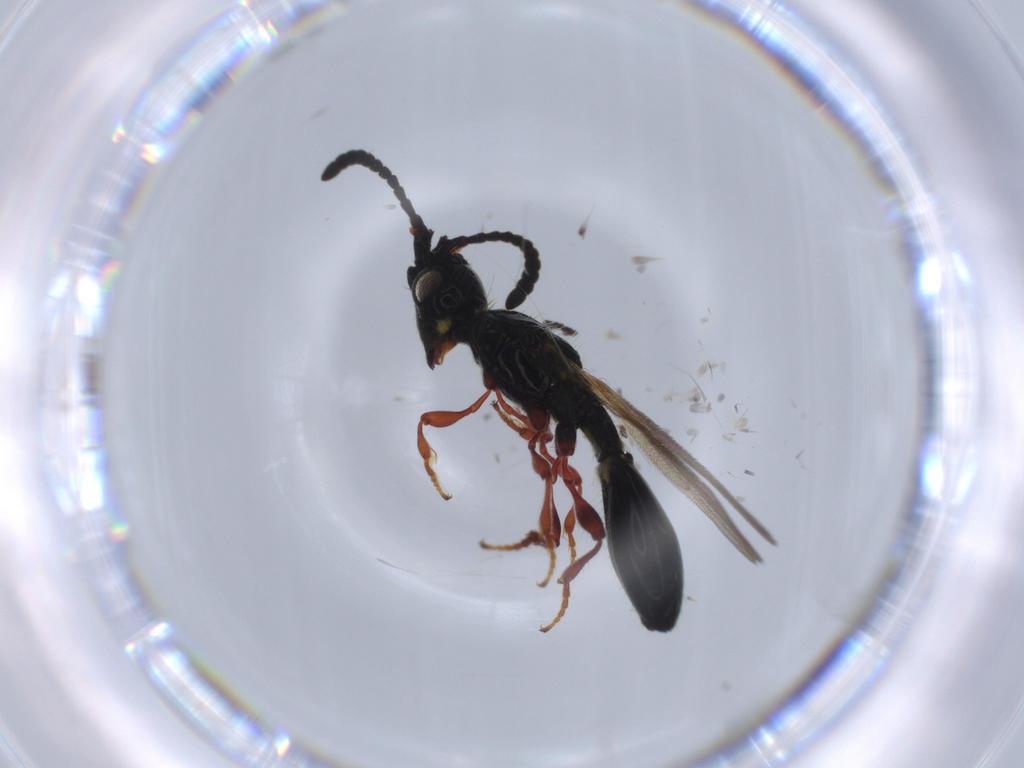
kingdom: Animalia
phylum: Arthropoda
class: Insecta
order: Hymenoptera
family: Diapriidae
